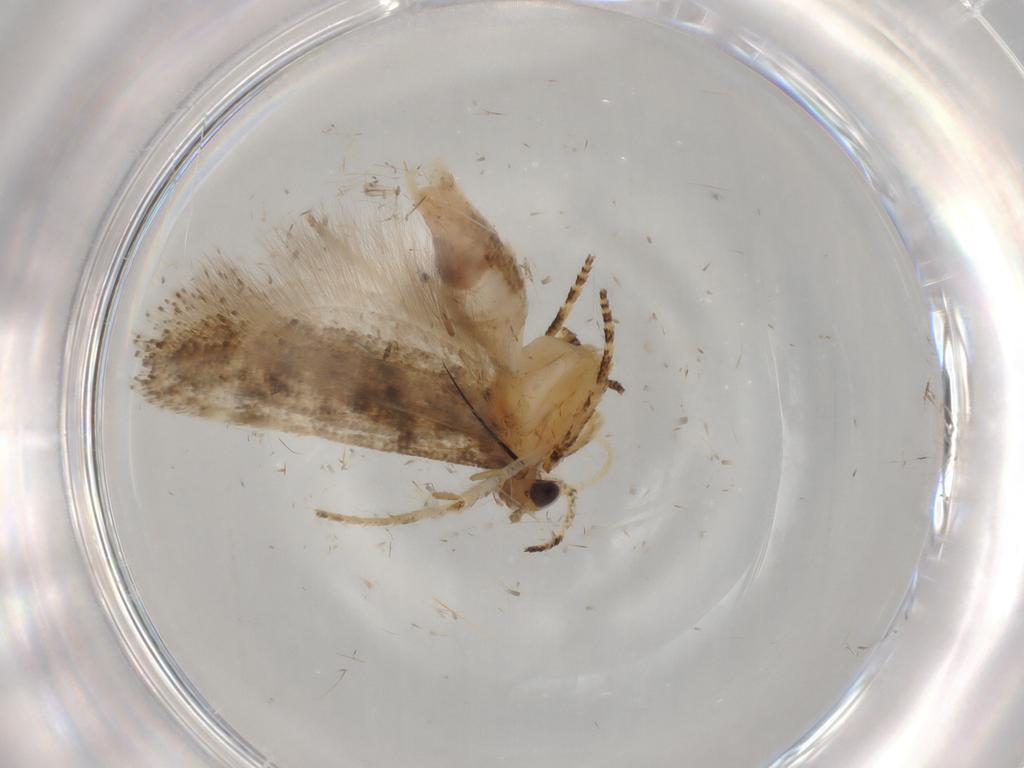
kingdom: Animalia
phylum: Arthropoda
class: Insecta
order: Lepidoptera
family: Gelechiidae
